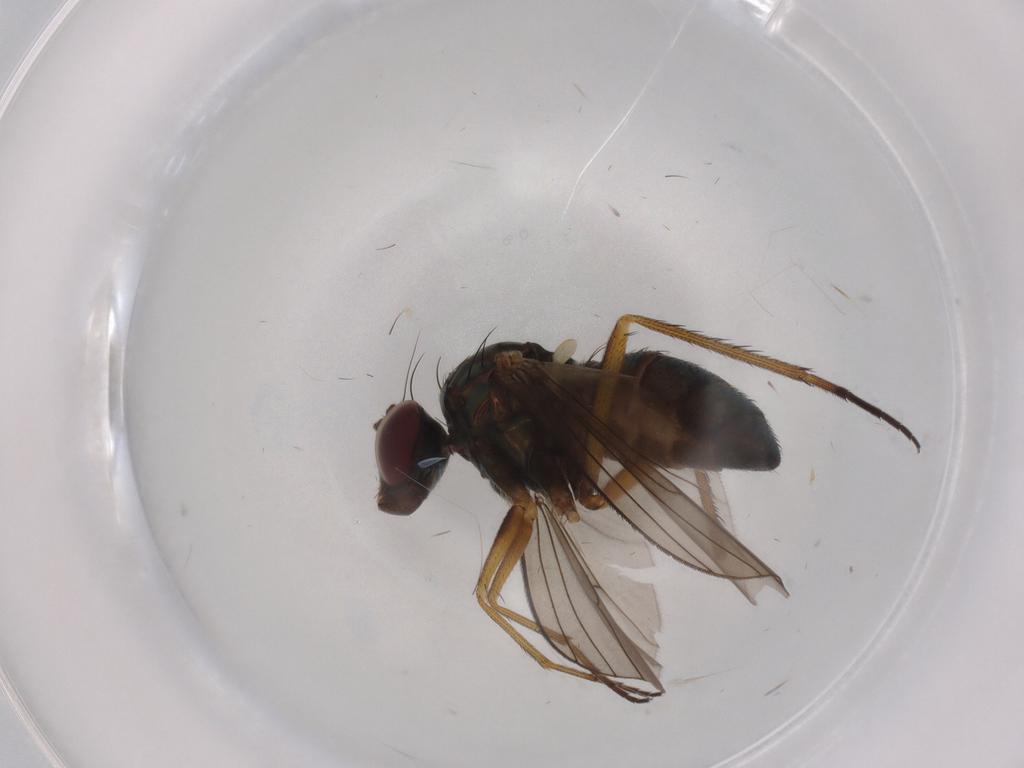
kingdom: Animalia
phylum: Arthropoda
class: Insecta
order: Diptera
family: Dolichopodidae
